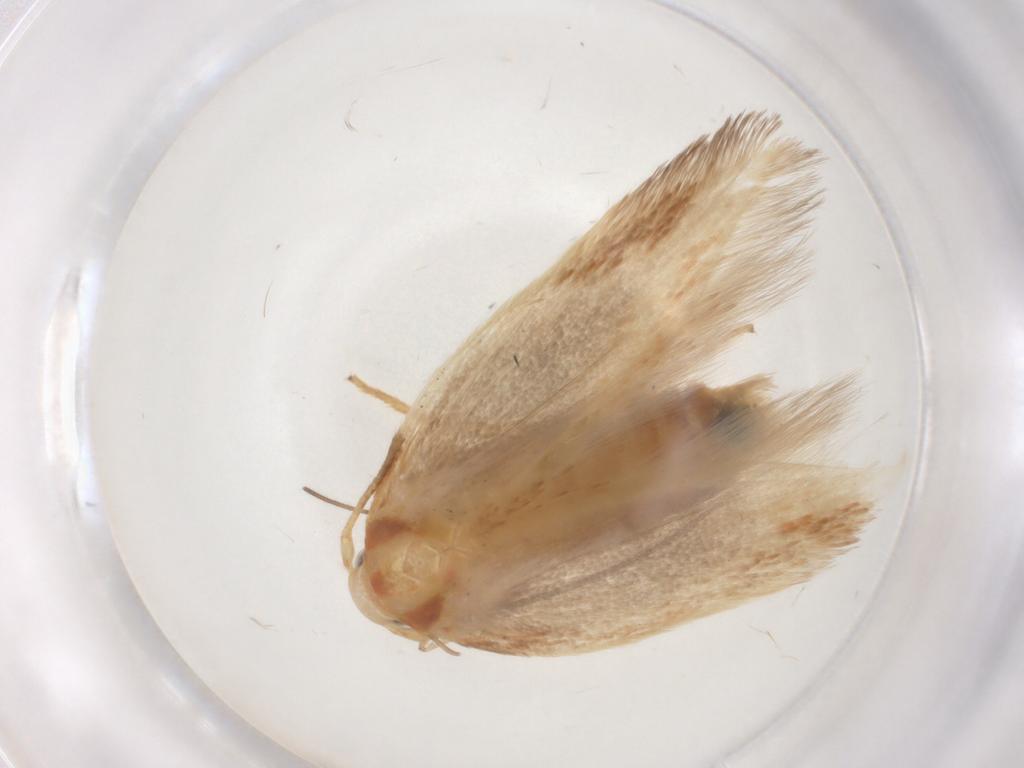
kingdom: Animalia
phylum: Arthropoda
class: Insecta
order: Lepidoptera
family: Geometridae
